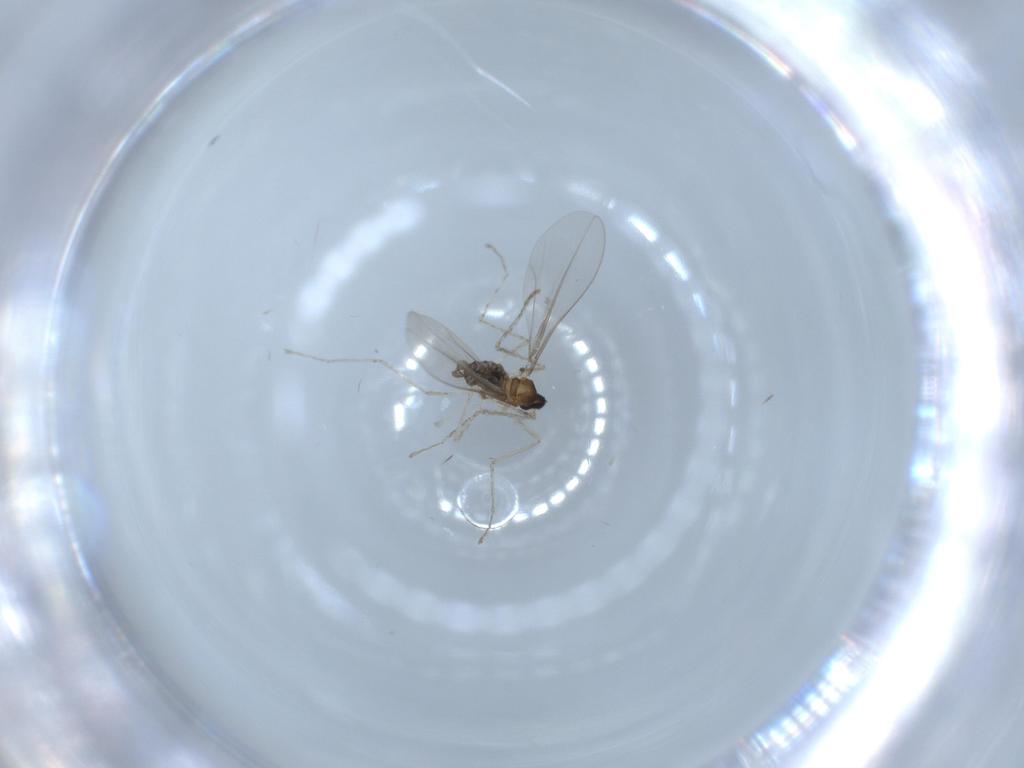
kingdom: Animalia
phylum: Arthropoda
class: Insecta
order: Diptera
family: Cecidomyiidae
